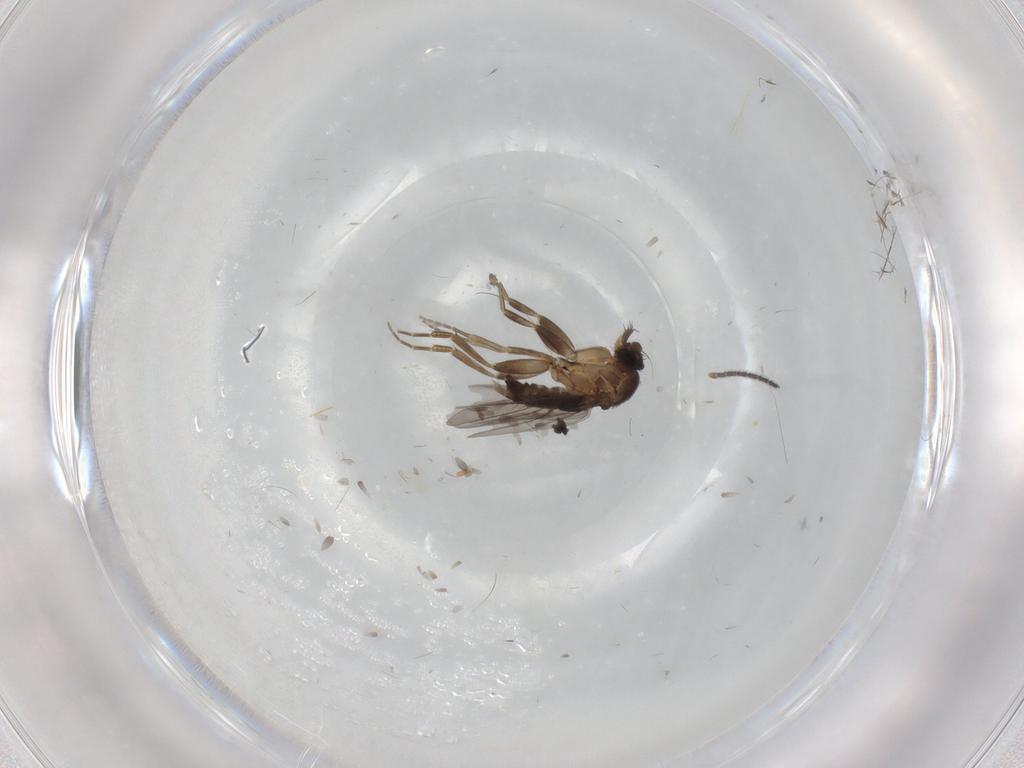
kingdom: Animalia
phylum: Arthropoda
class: Insecta
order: Diptera
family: Phoridae
